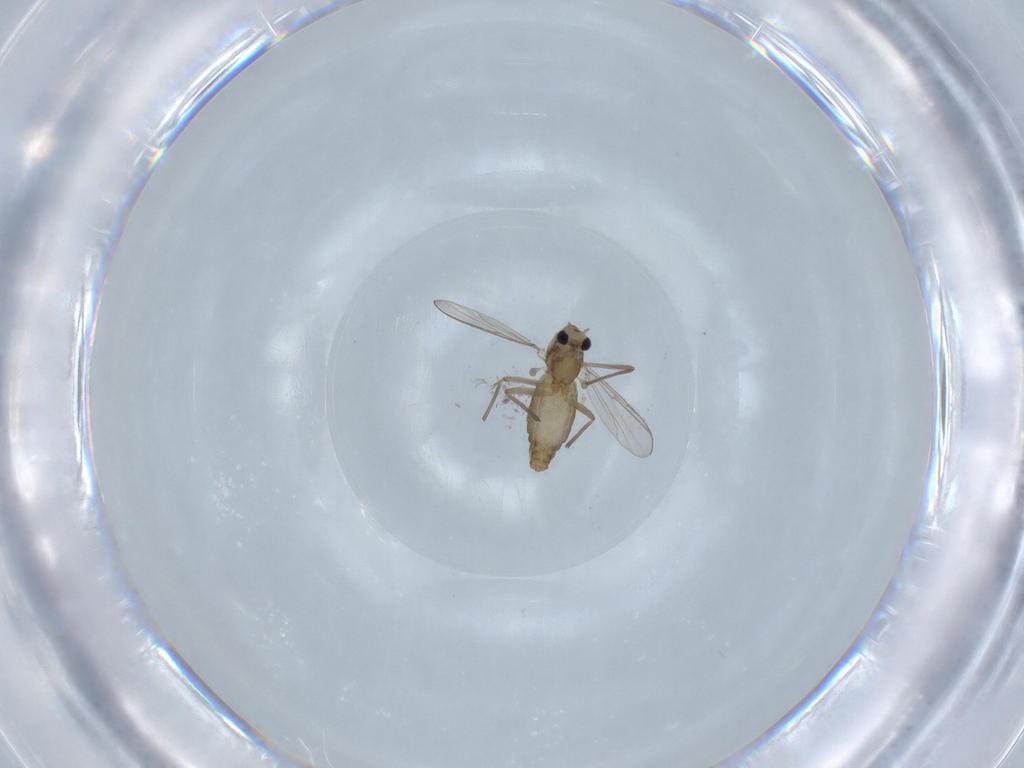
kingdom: Animalia
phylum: Arthropoda
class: Insecta
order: Diptera
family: Chironomidae
